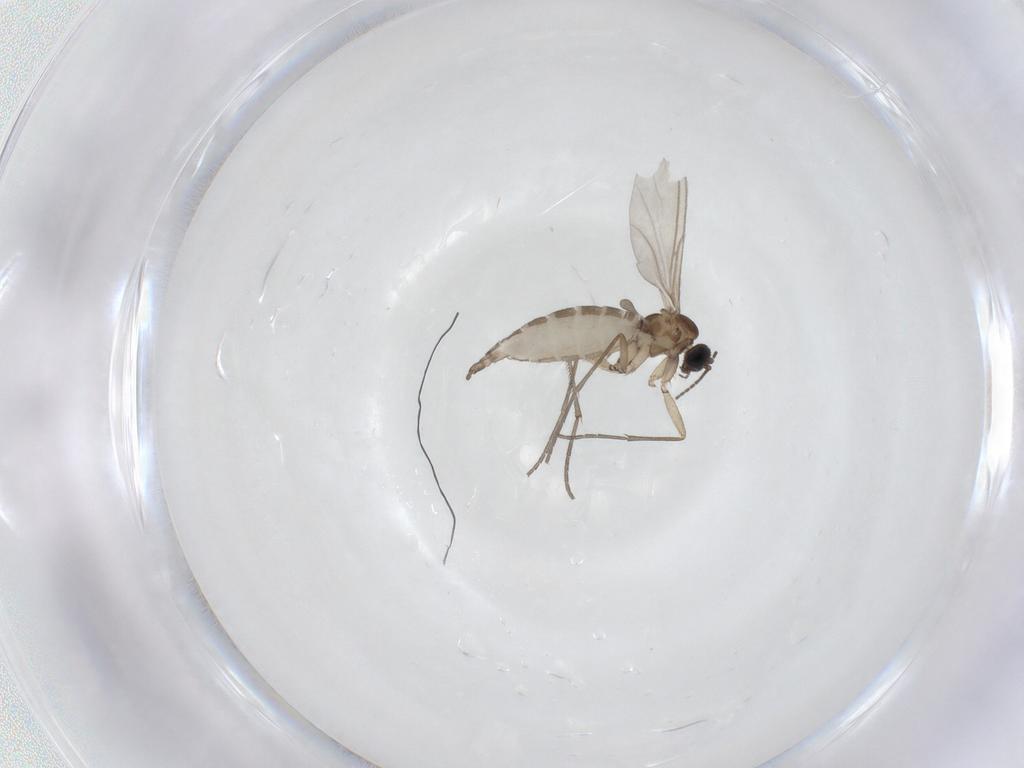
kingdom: Animalia
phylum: Arthropoda
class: Insecta
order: Diptera
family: Sciaridae
